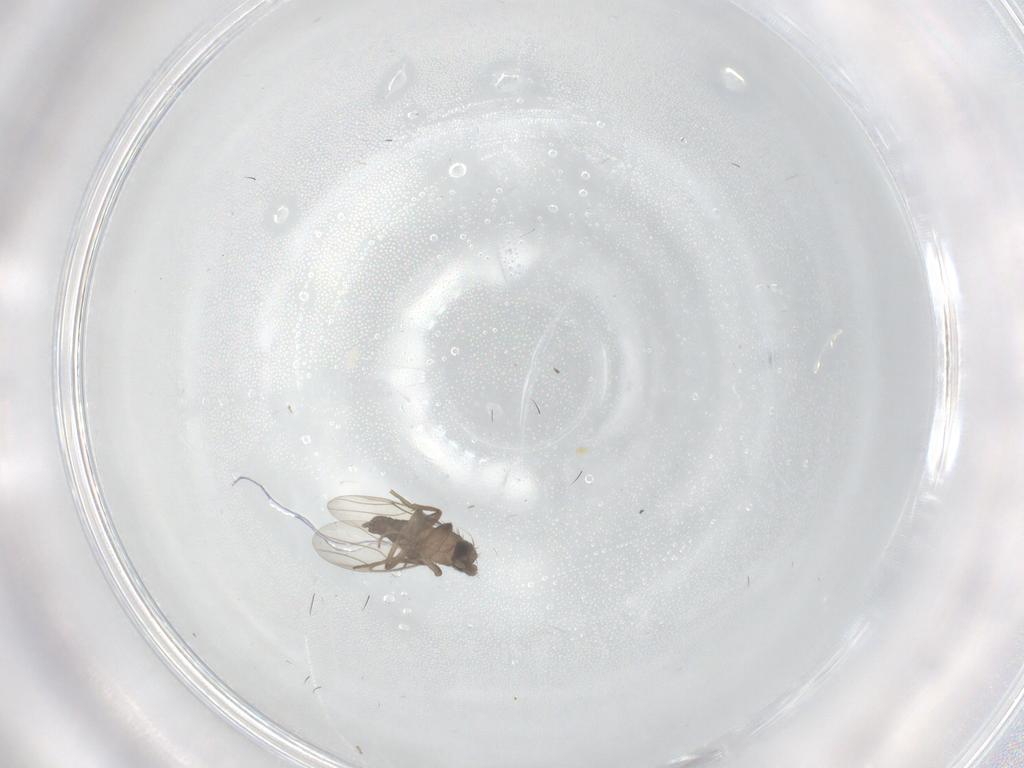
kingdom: Animalia
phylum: Arthropoda
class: Insecta
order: Diptera
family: Phoridae
